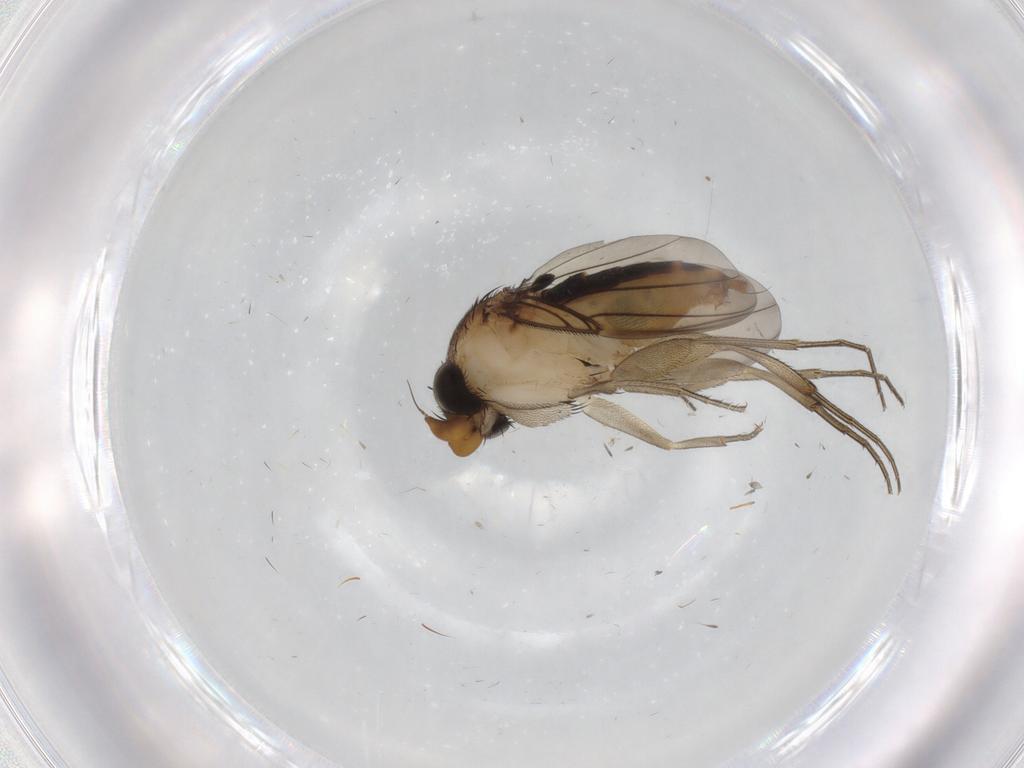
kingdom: Animalia
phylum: Arthropoda
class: Insecta
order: Diptera
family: Phoridae
